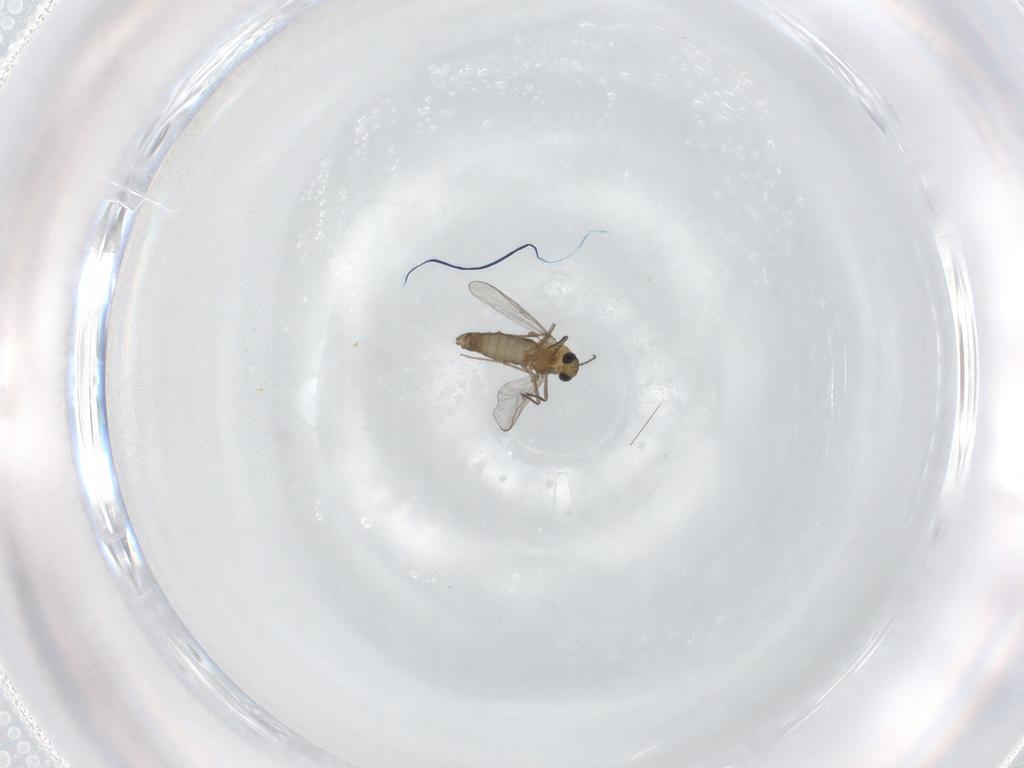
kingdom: Animalia
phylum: Arthropoda
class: Insecta
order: Diptera
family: Chironomidae
